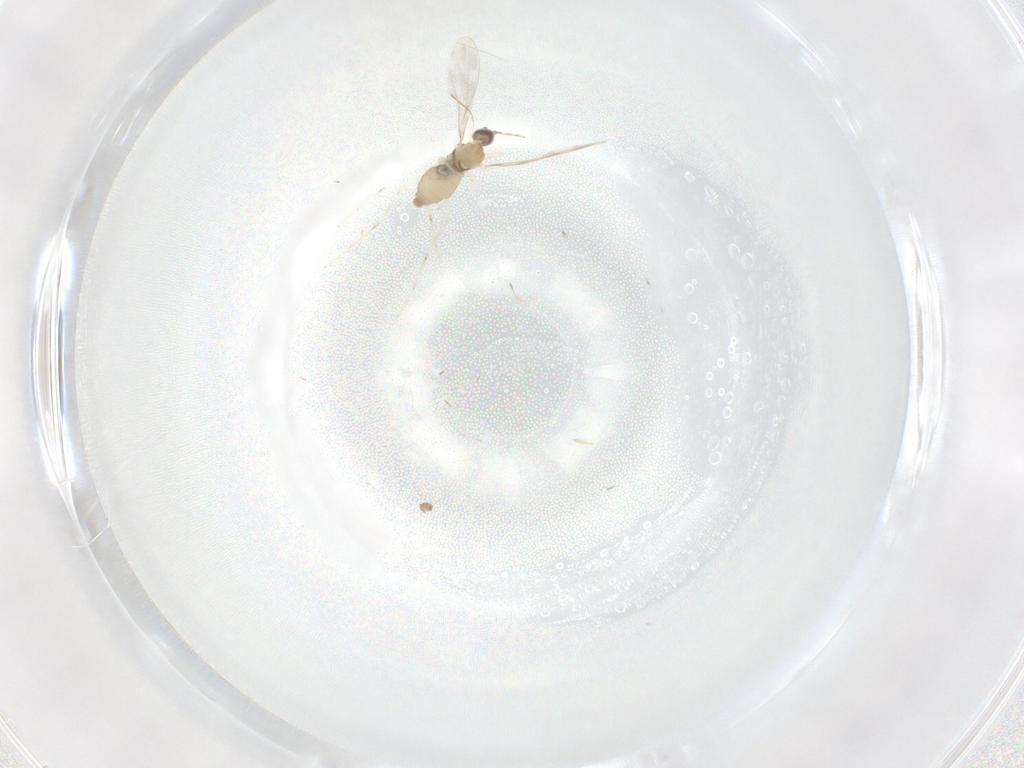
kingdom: Animalia
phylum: Arthropoda
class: Insecta
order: Diptera
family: Cecidomyiidae
